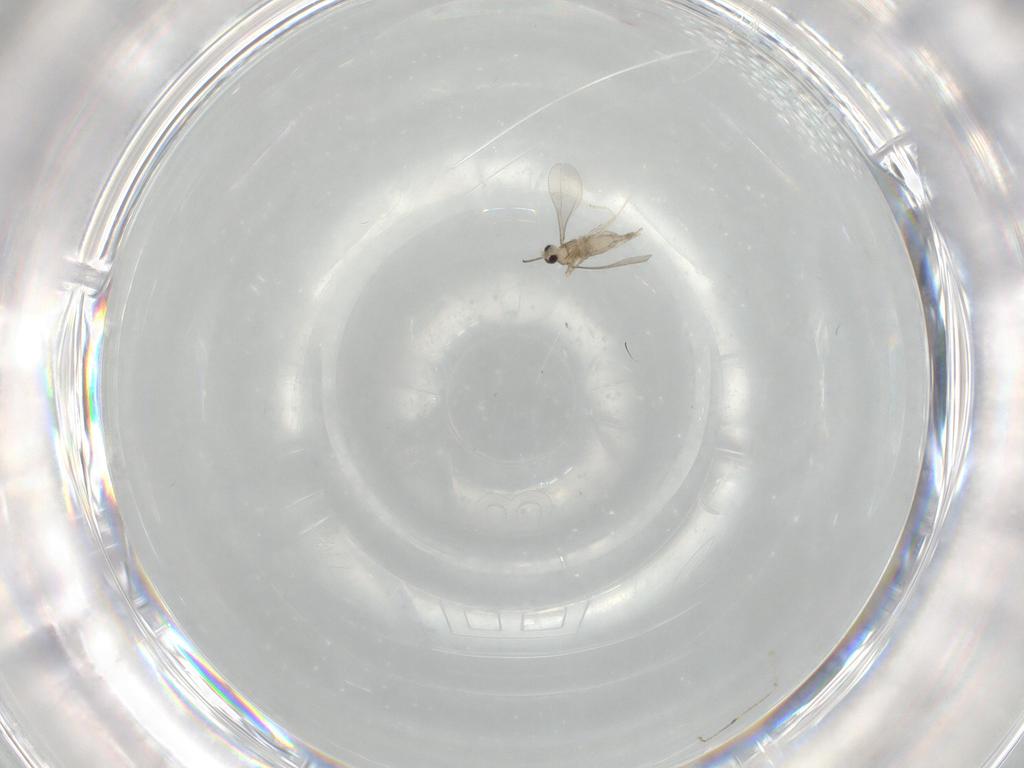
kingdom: Animalia
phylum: Arthropoda
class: Insecta
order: Diptera
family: Cecidomyiidae
